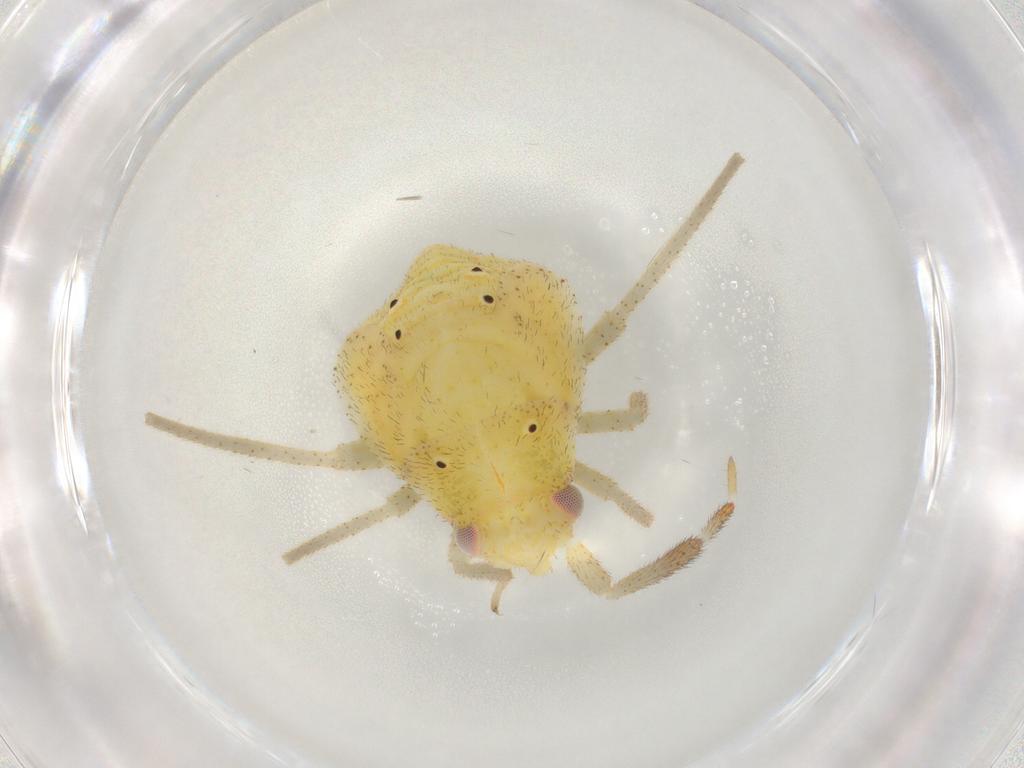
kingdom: Animalia
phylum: Arthropoda
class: Insecta
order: Hemiptera
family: Miridae
